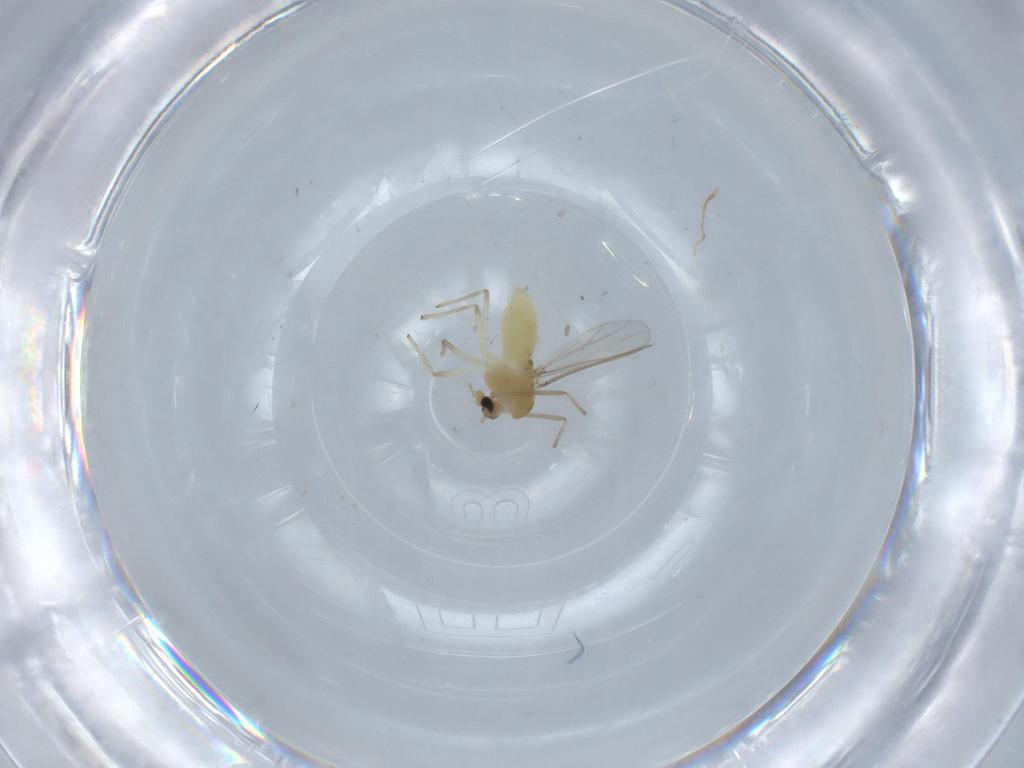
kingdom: Animalia
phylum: Arthropoda
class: Insecta
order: Diptera
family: Chironomidae
